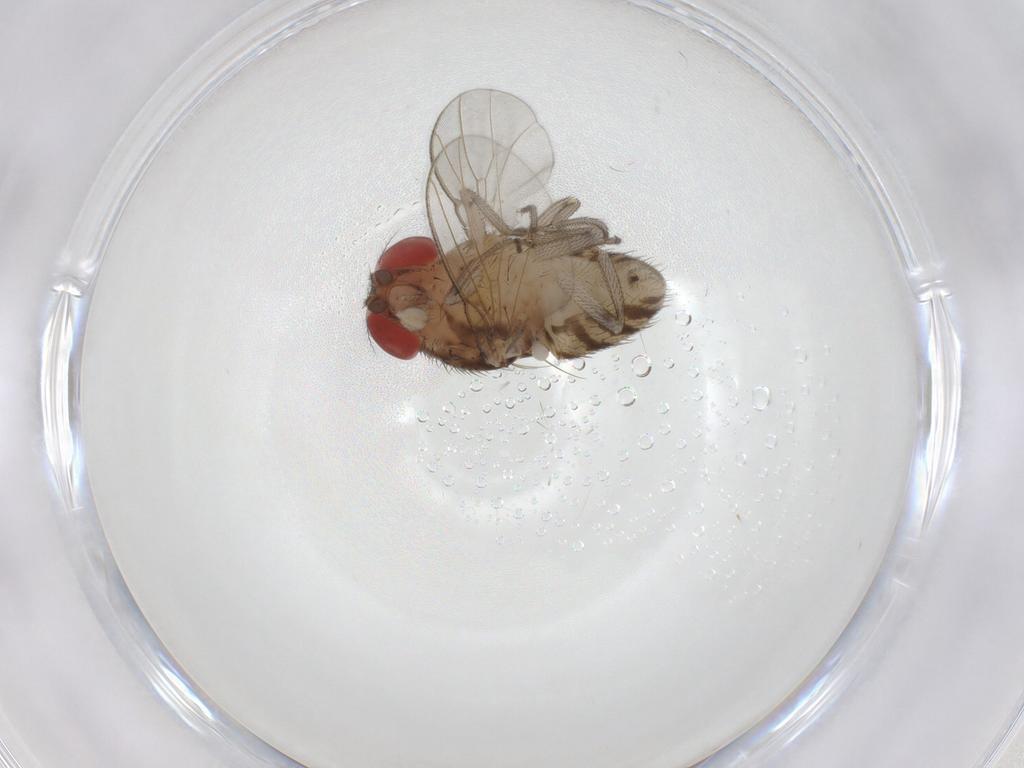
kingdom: Animalia
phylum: Arthropoda
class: Insecta
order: Diptera
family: Drosophilidae
